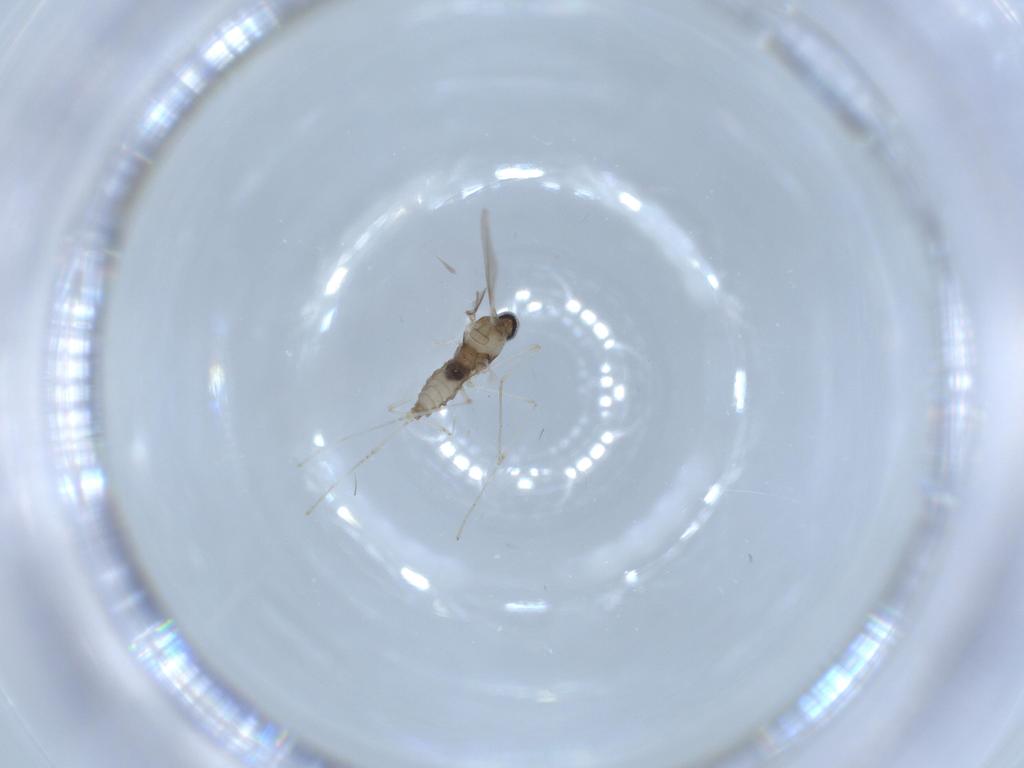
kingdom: Animalia
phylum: Arthropoda
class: Insecta
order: Diptera
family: Cecidomyiidae
